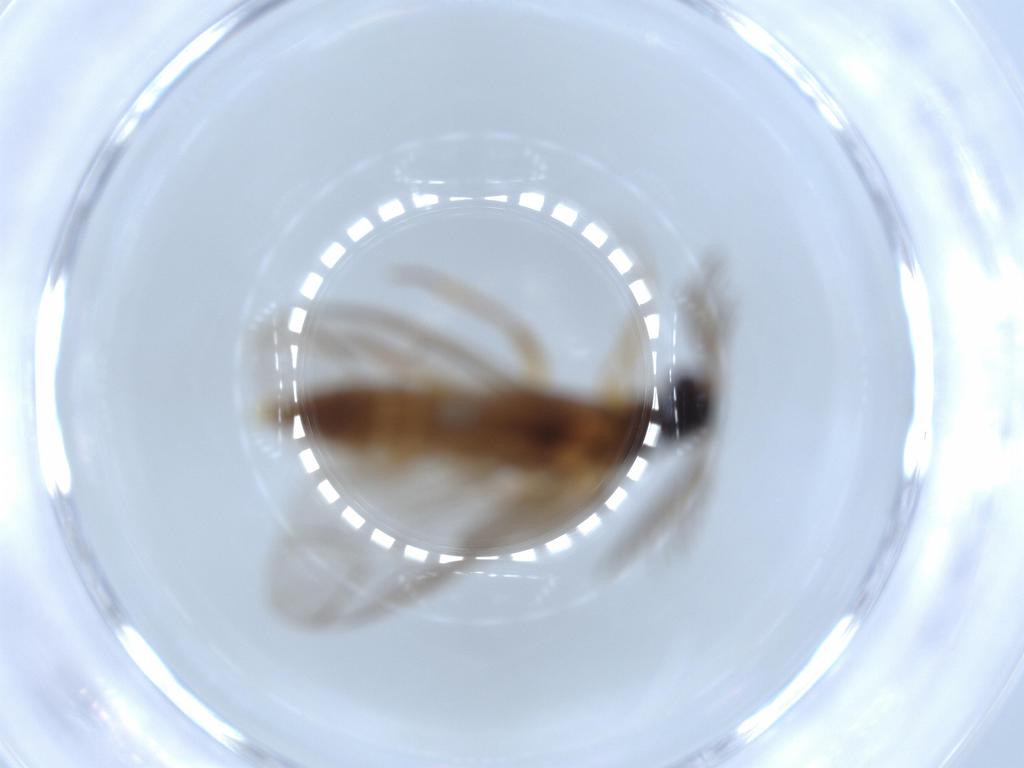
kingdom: Animalia
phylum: Arthropoda
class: Insecta
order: Coleoptera
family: Bostrichidae
